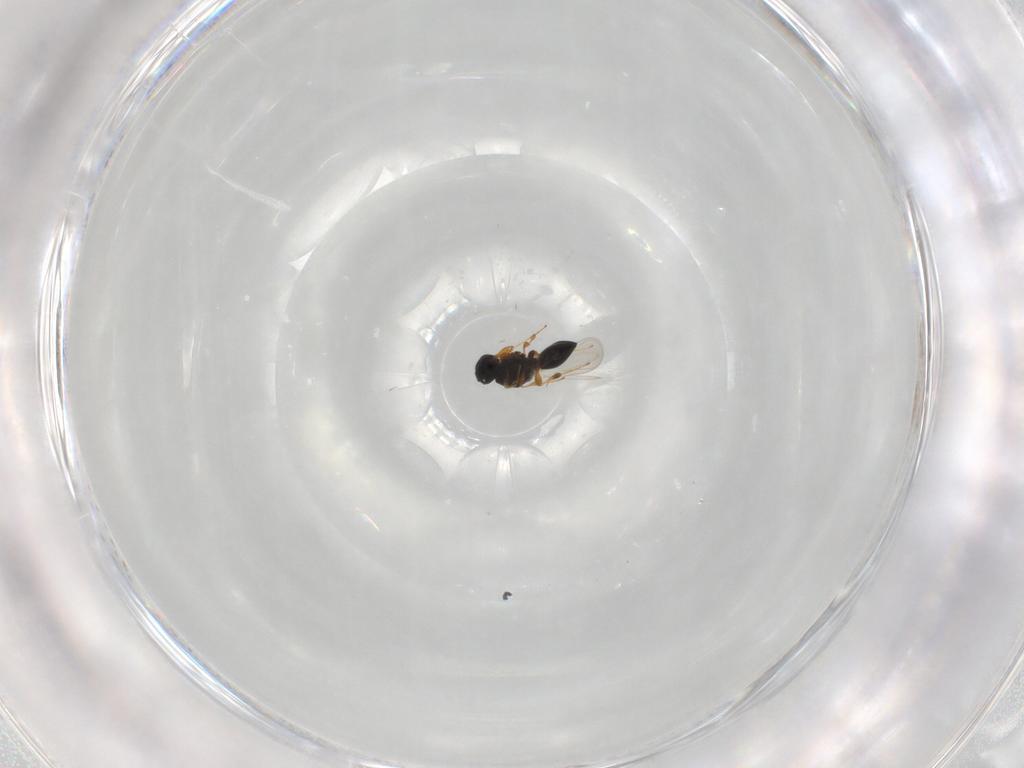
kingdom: Animalia
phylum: Arthropoda
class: Insecta
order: Hymenoptera
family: Platygastridae
